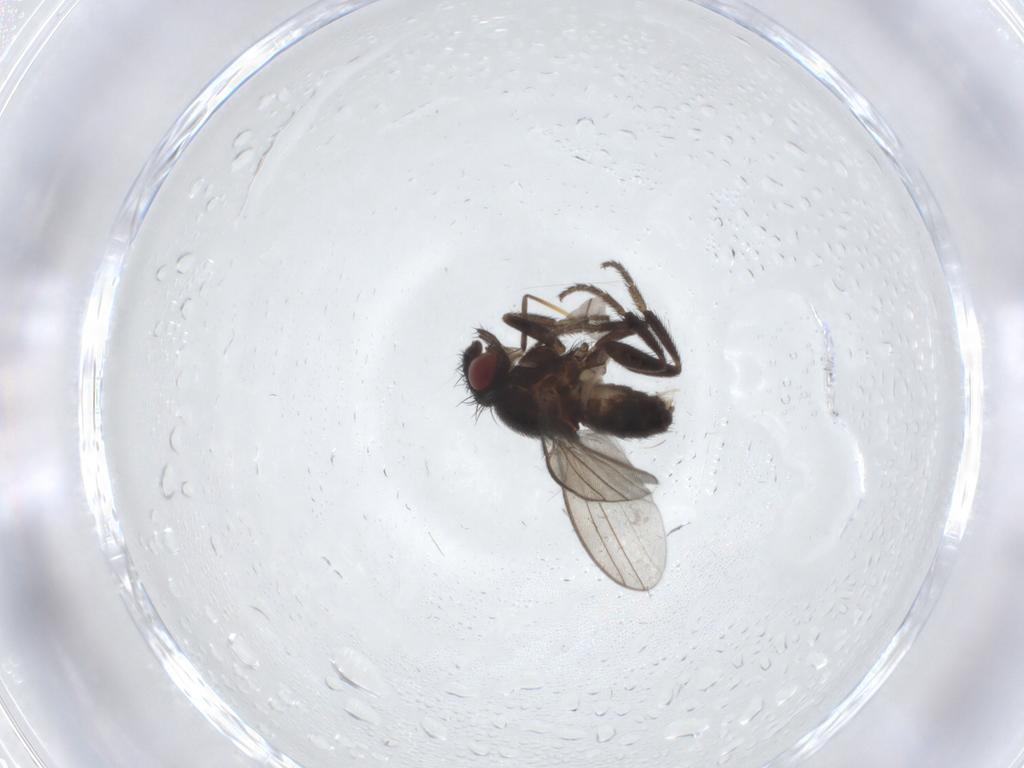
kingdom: Animalia
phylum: Arthropoda
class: Insecta
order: Diptera
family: Milichiidae
